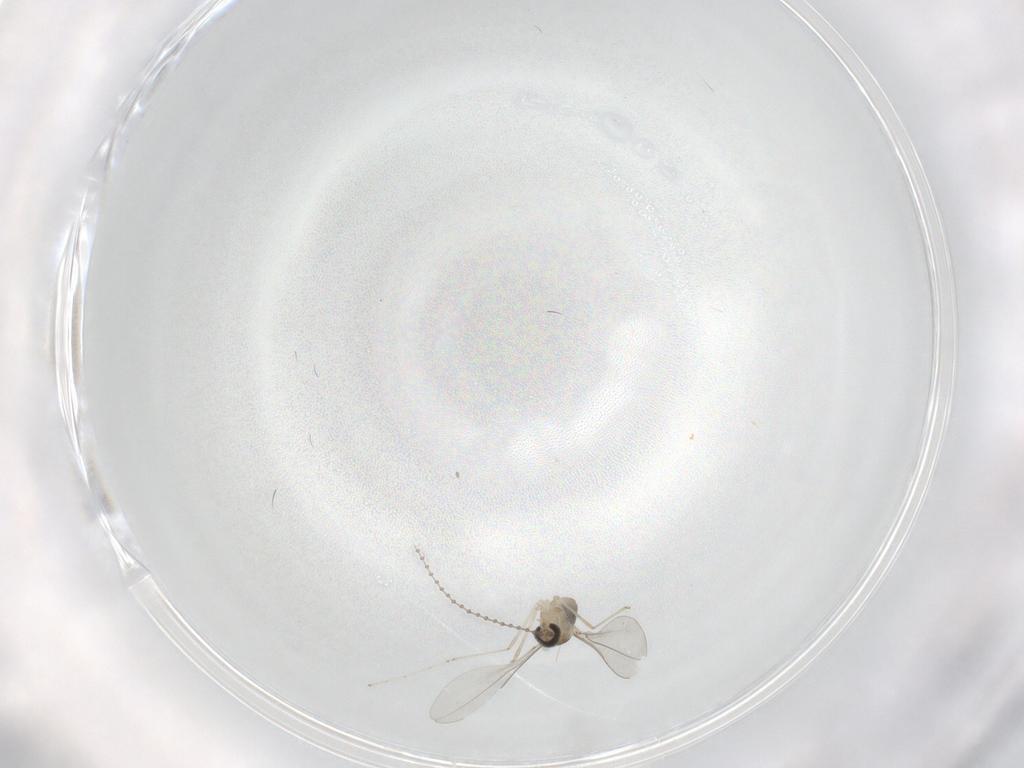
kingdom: Animalia
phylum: Arthropoda
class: Insecta
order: Diptera
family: Cecidomyiidae
